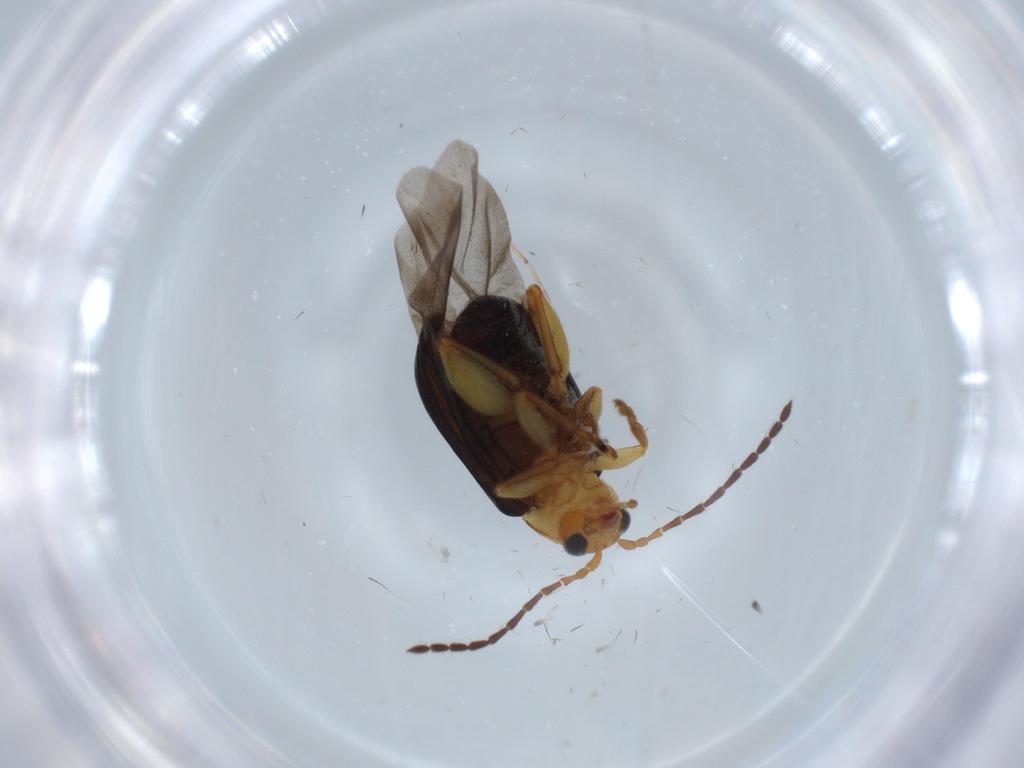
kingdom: Animalia
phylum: Arthropoda
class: Insecta
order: Coleoptera
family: Chrysomelidae
